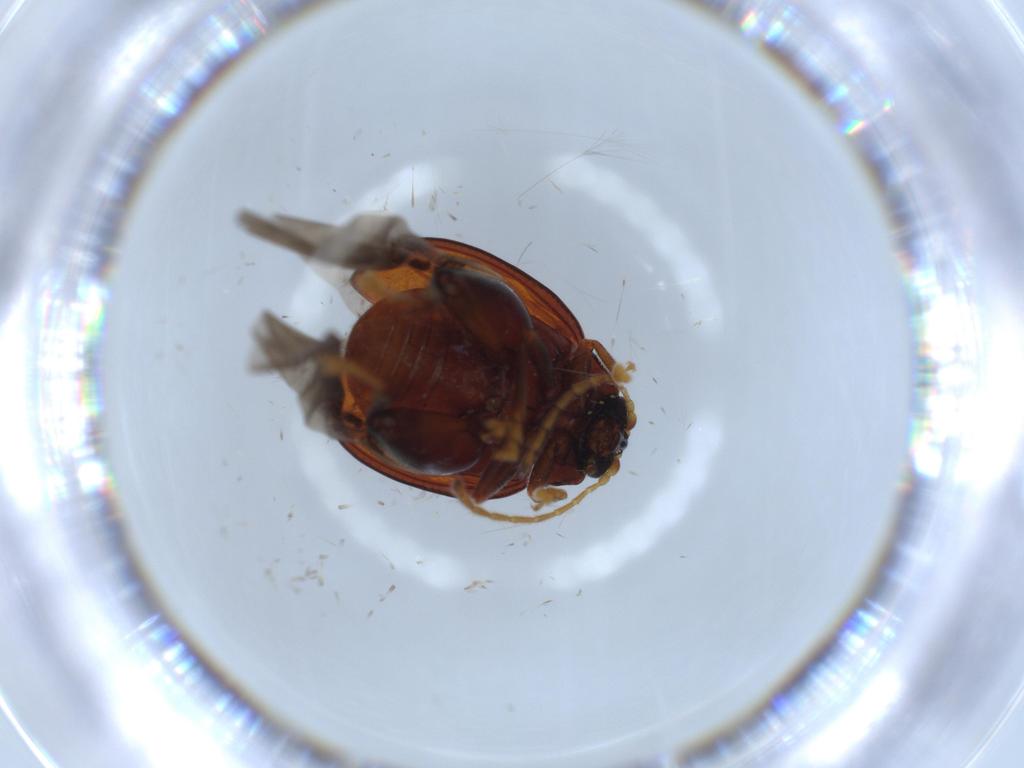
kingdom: Animalia
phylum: Arthropoda
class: Insecta
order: Coleoptera
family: Chrysomelidae
